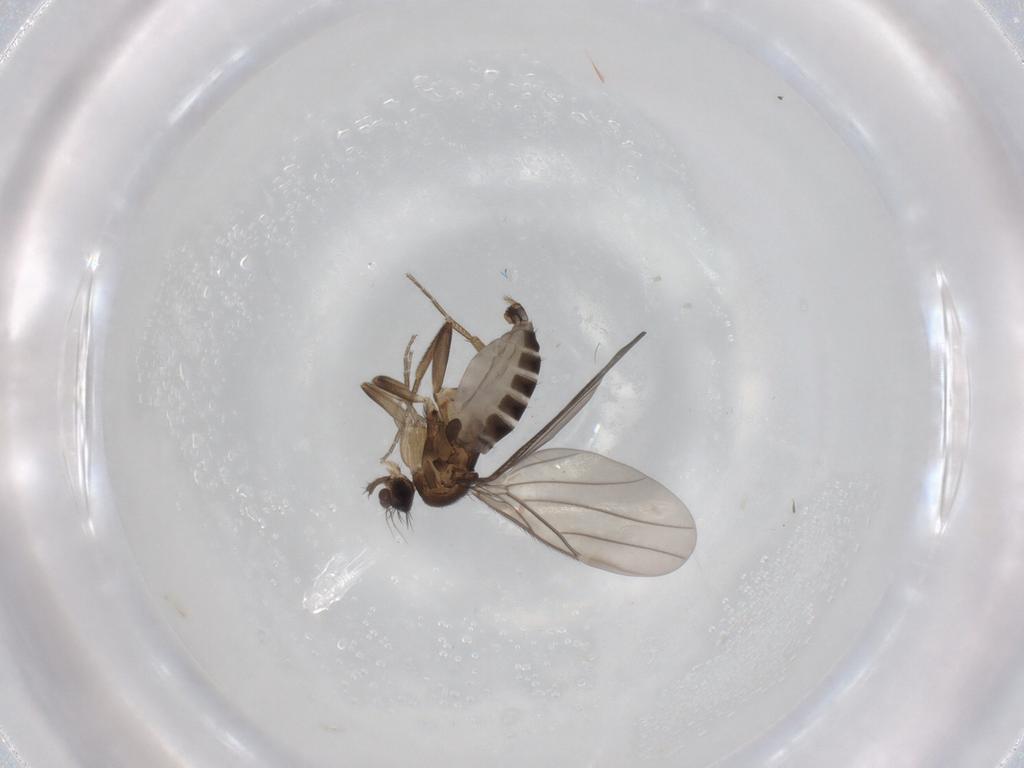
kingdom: Animalia
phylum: Arthropoda
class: Insecta
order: Diptera
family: Phoridae
